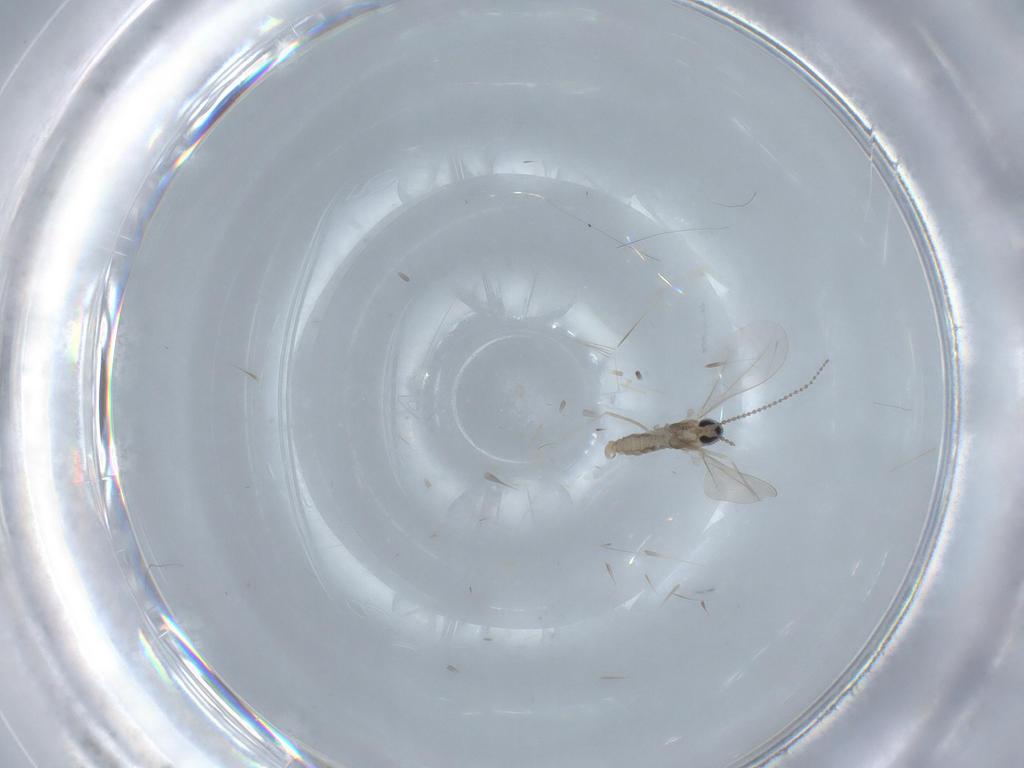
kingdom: Animalia
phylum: Arthropoda
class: Insecta
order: Diptera
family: Cecidomyiidae
